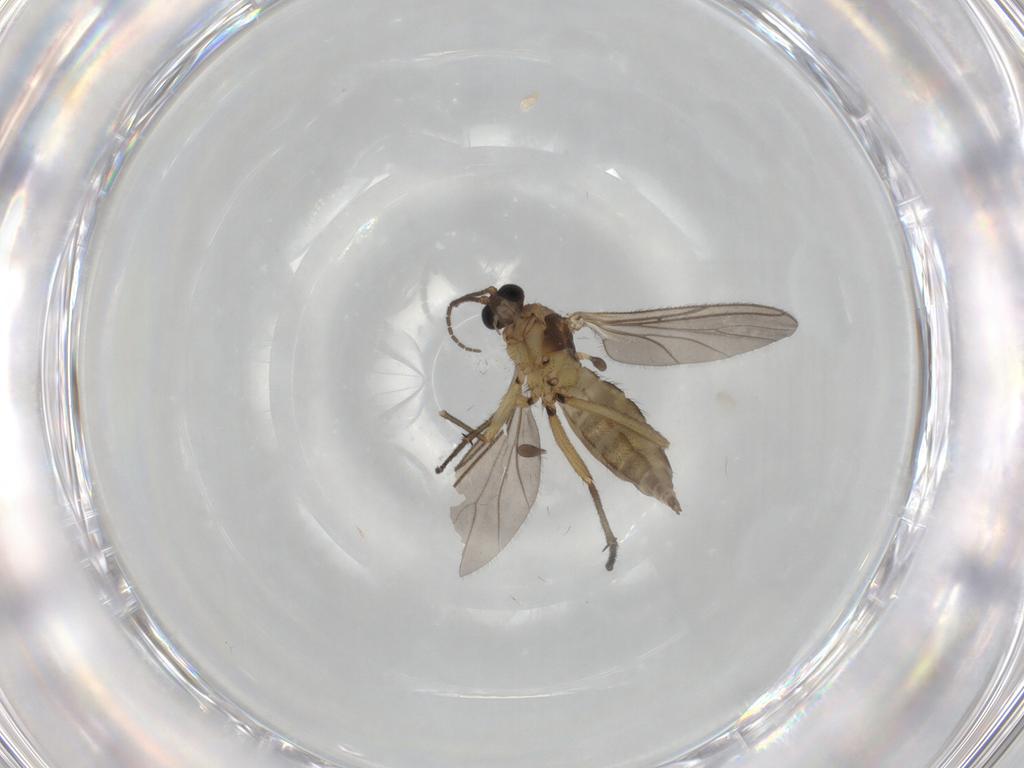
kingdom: Animalia
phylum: Arthropoda
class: Insecta
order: Diptera
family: Sciaridae
